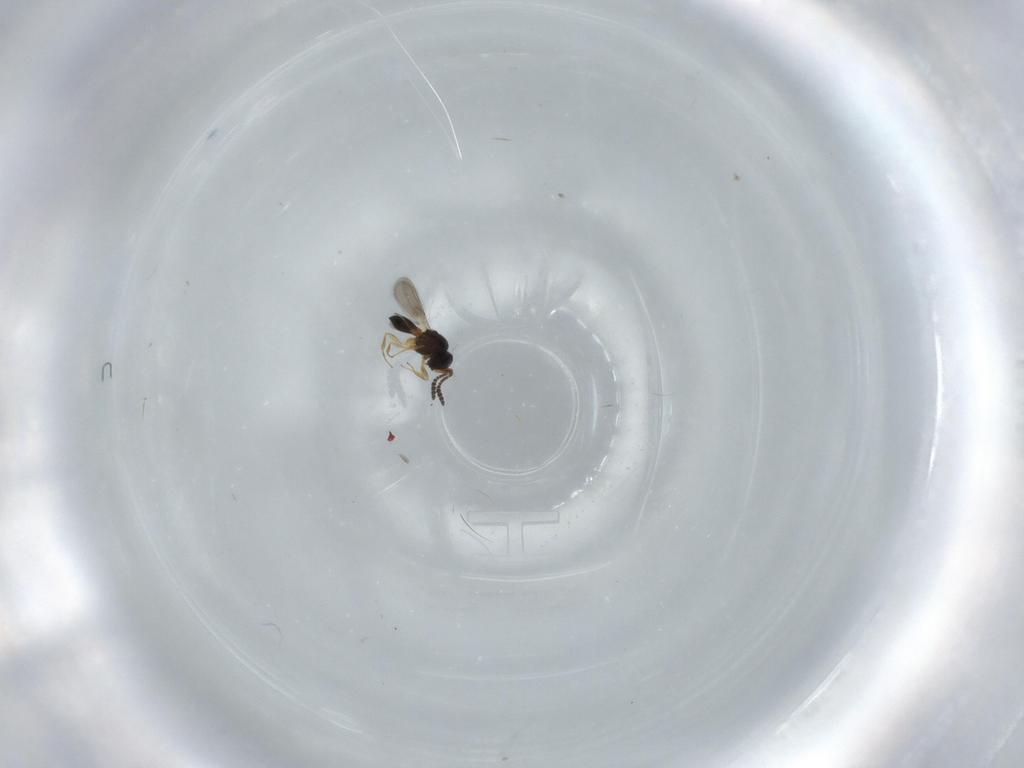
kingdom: Animalia
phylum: Arthropoda
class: Insecta
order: Hymenoptera
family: Scelionidae
